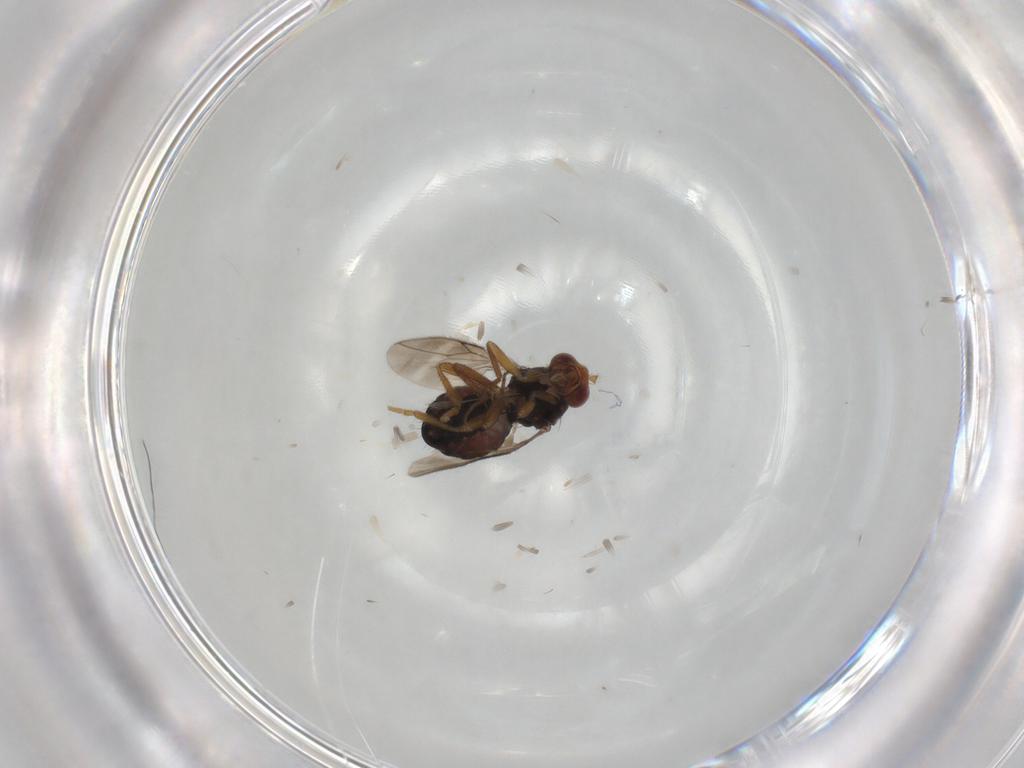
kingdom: Animalia
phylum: Arthropoda
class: Insecta
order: Diptera
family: Sphaeroceridae
